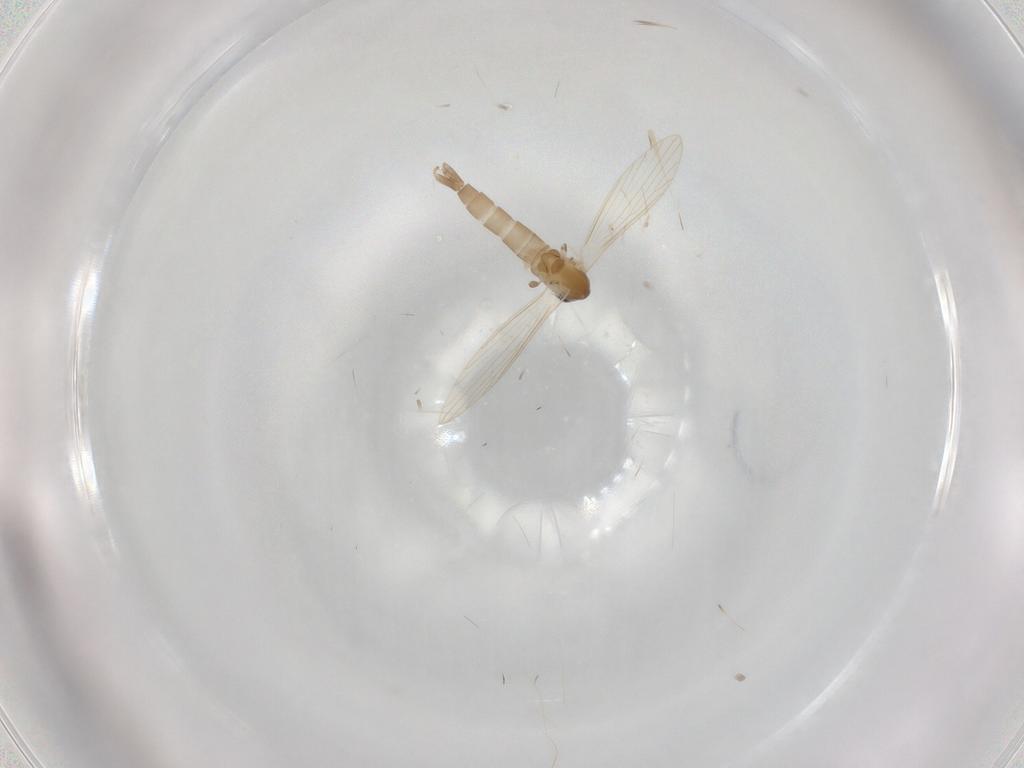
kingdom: Animalia
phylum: Arthropoda
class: Insecta
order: Diptera
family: Psychodidae
